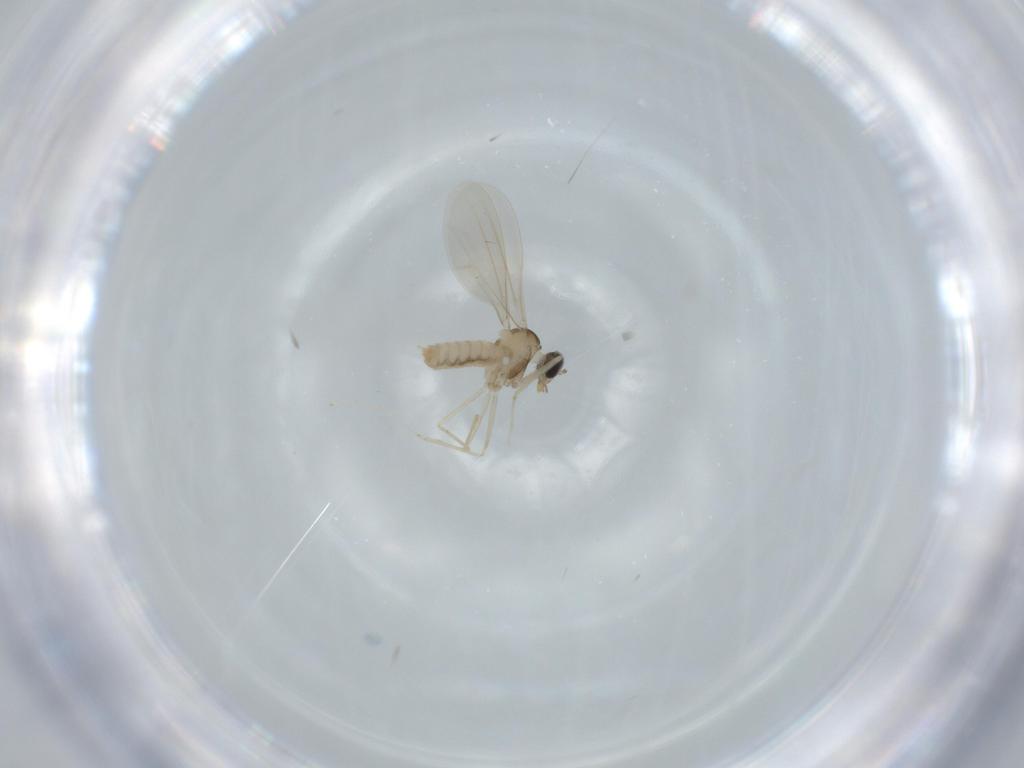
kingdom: Animalia
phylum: Arthropoda
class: Insecta
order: Diptera
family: Cecidomyiidae
